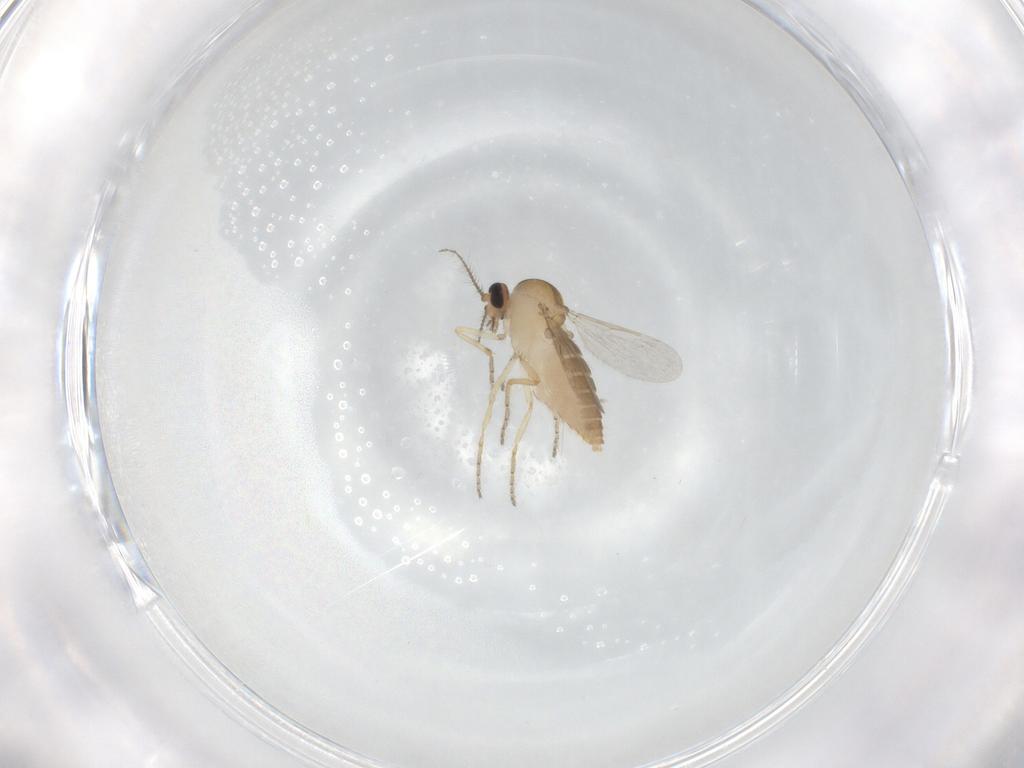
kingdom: Animalia
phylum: Arthropoda
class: Insecta
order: Diptera
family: Ceratopogonidae
